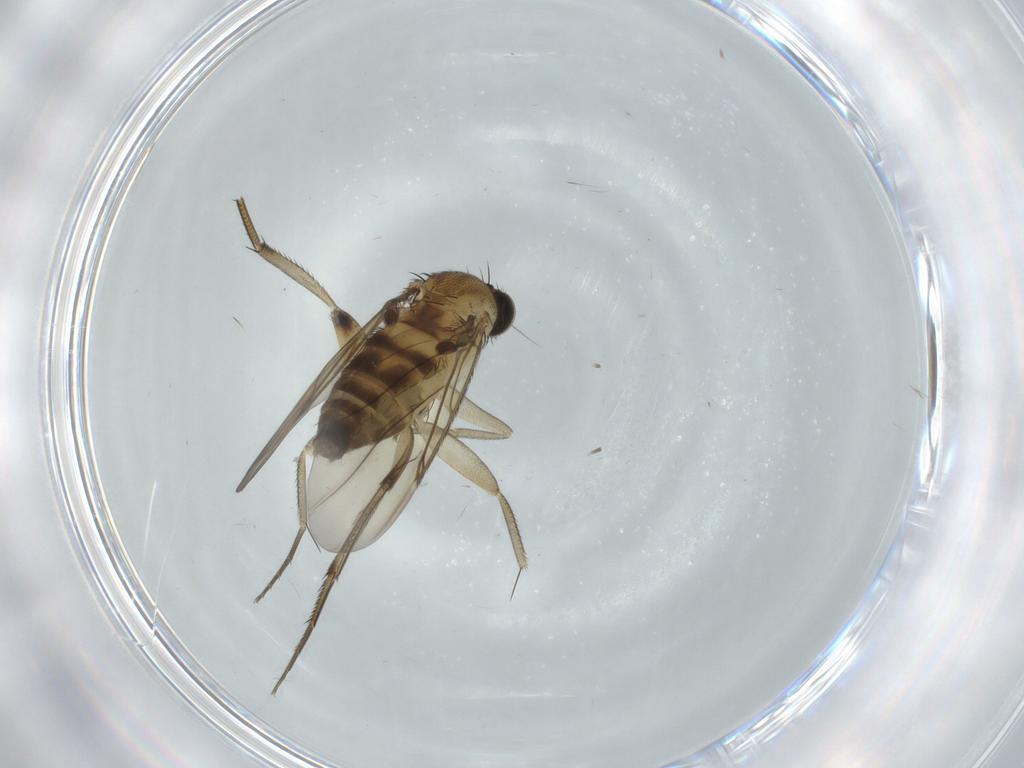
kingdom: Animalia
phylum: Arthropoda
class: Insecta
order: Diptera
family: Phoridae
